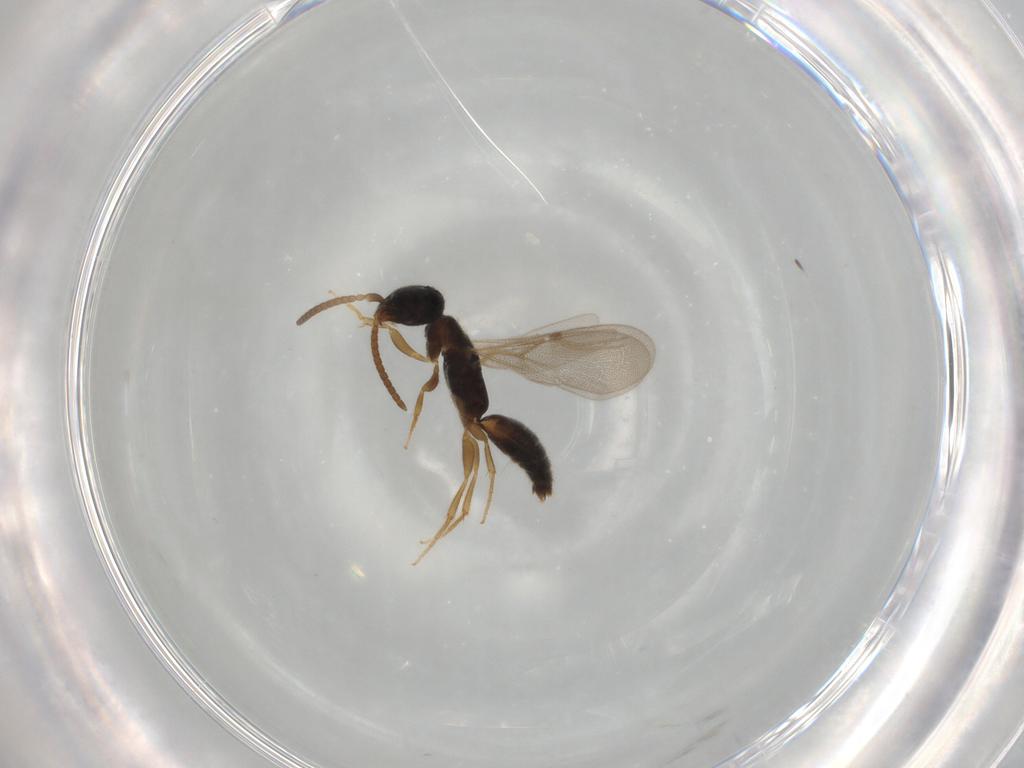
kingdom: Animalia
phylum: Arthropoda
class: Insecta
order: Hymenoptera
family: Bethylidae
